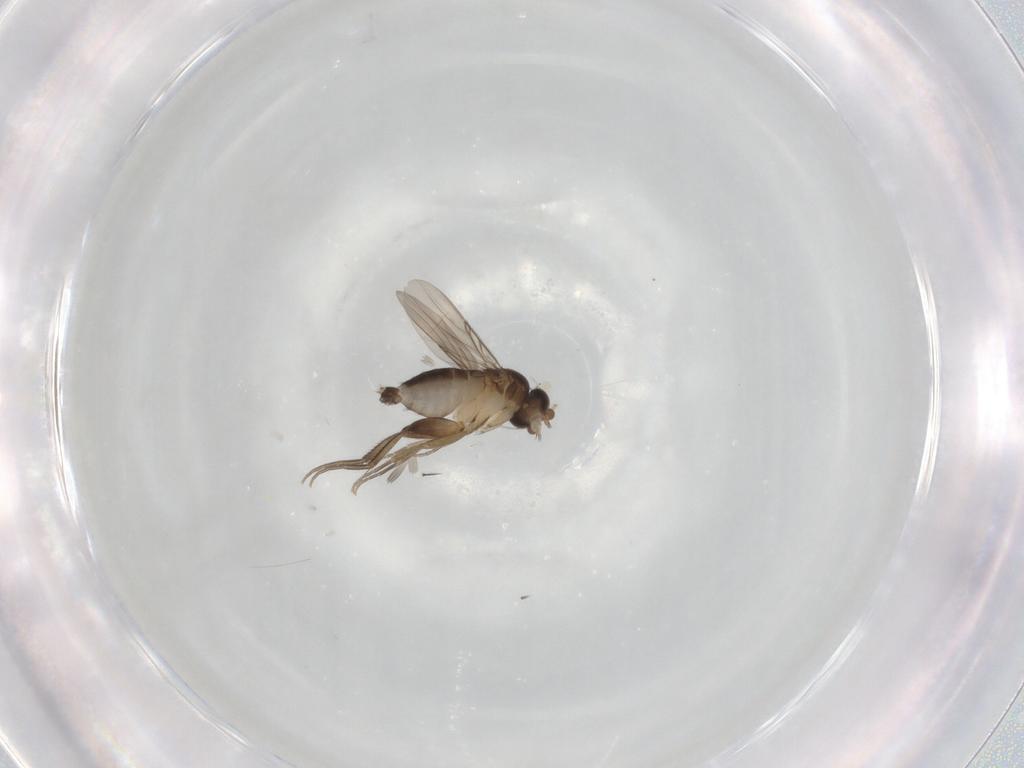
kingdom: Animalia
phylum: Arthropoda
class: Insecta
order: Diptera
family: Phoridae
